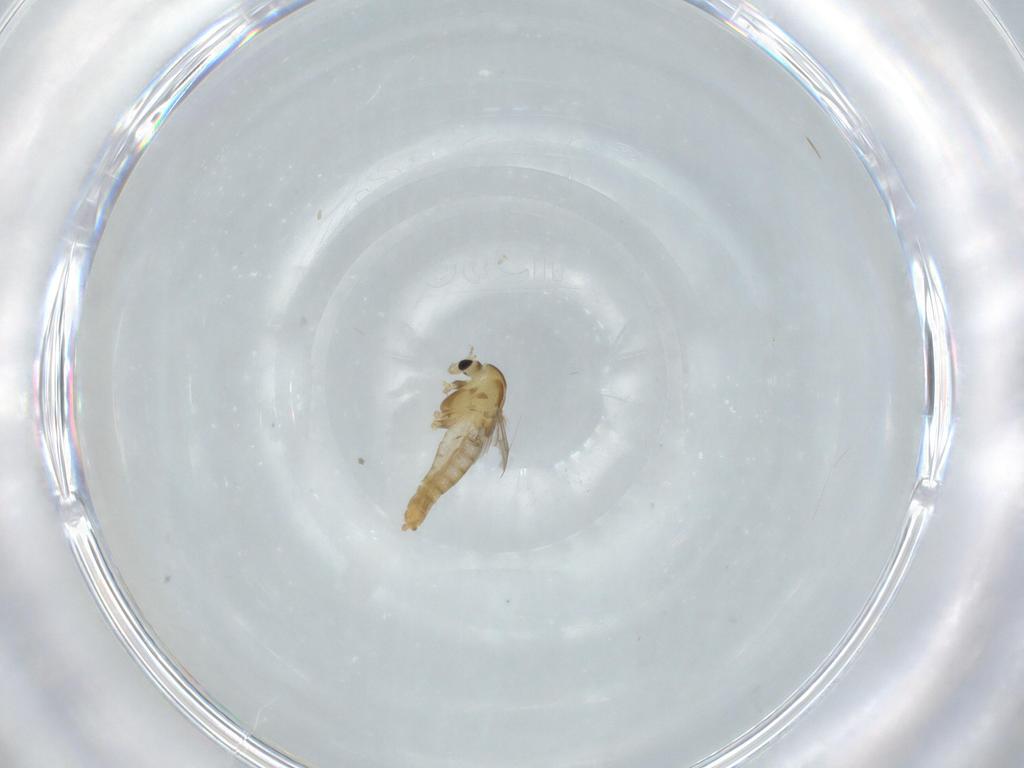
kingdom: Animalia
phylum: Arthropoda
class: Insecta
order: Diptera
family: Chironomidae
